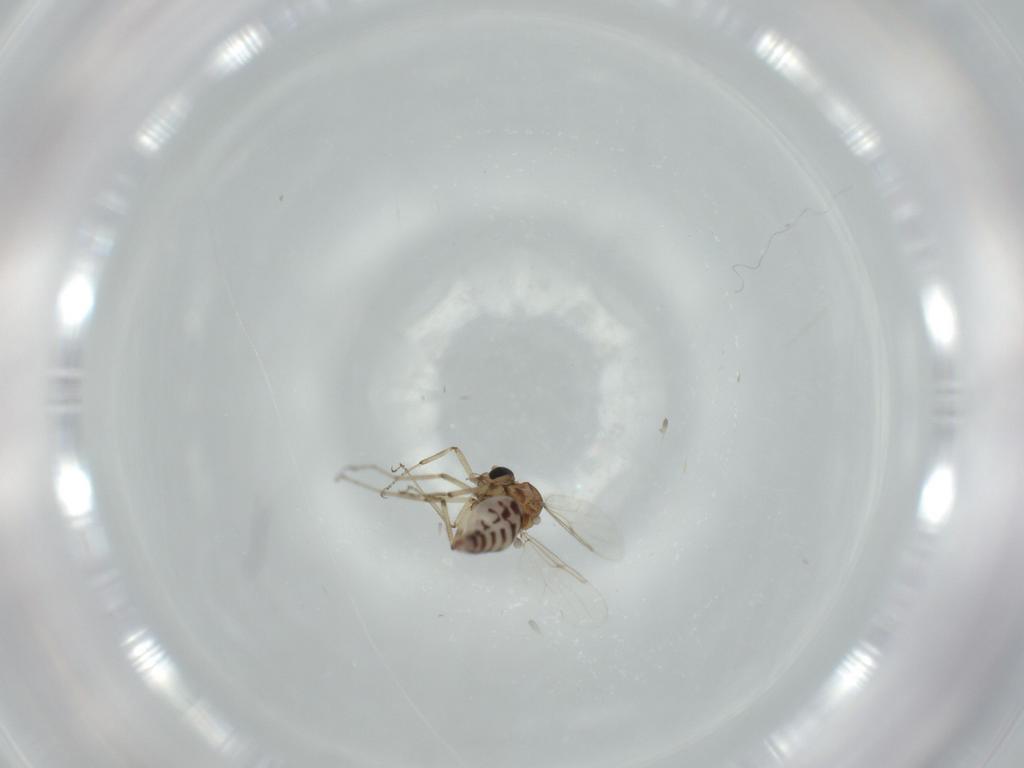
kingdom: Animalia
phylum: Arthropoda
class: Insecta
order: Diptera
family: Ceratopogonidae
